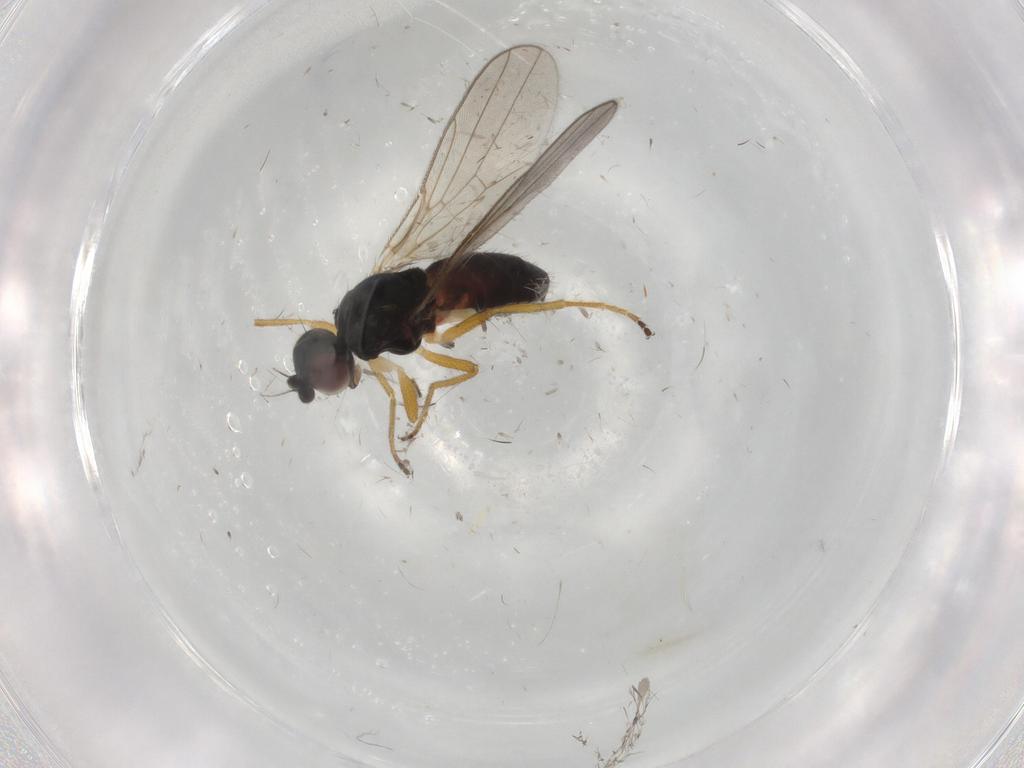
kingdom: Animalia
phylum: Arthropoda
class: Insecta
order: Diptera
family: Chloropidae
